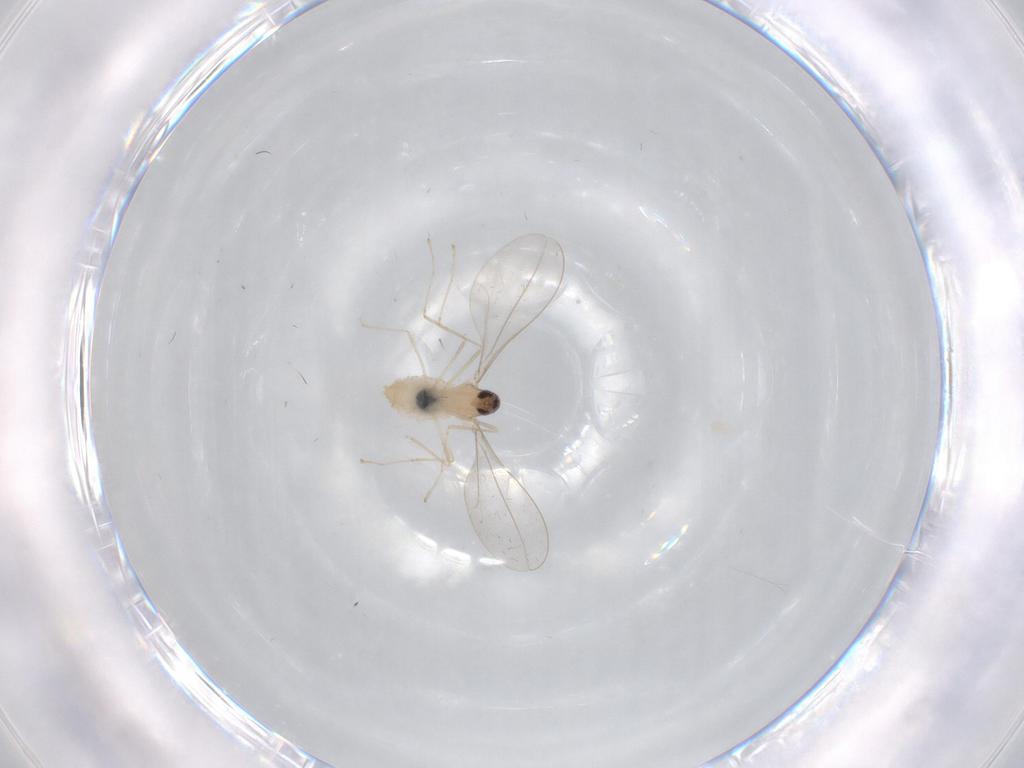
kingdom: Animalia
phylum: Arthropoda
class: Insecta
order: Diptera
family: Cecidomyiidae
